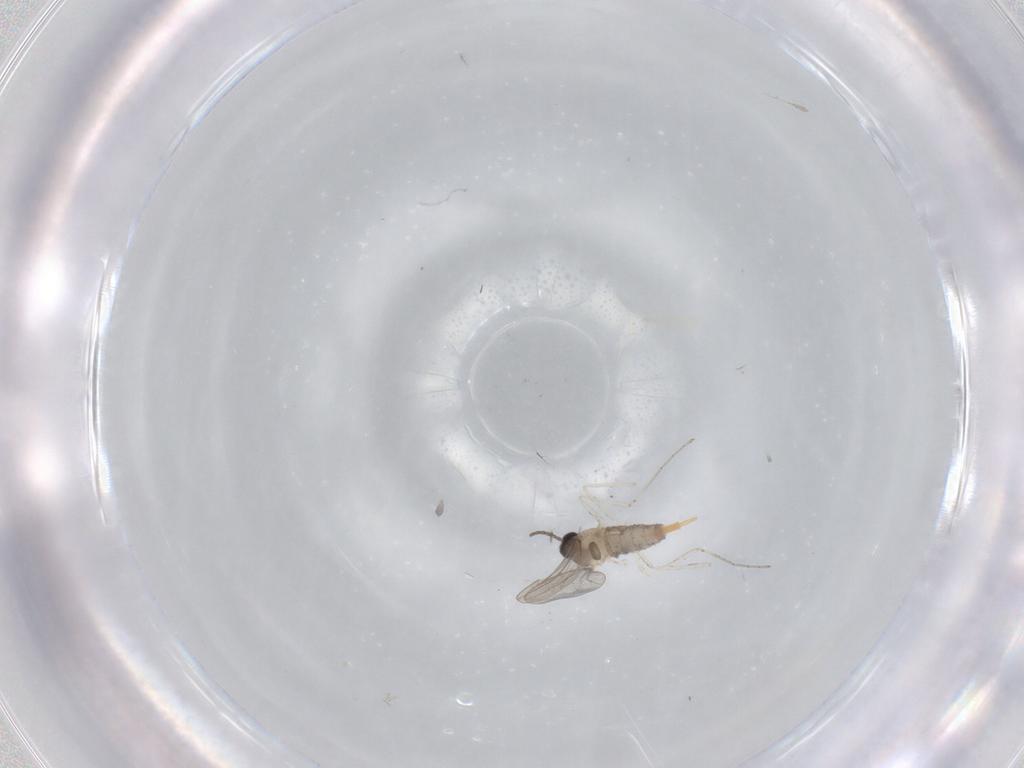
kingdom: Animalia
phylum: Arthropoda
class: Insecta
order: Diptera
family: Cecidomyiidae
